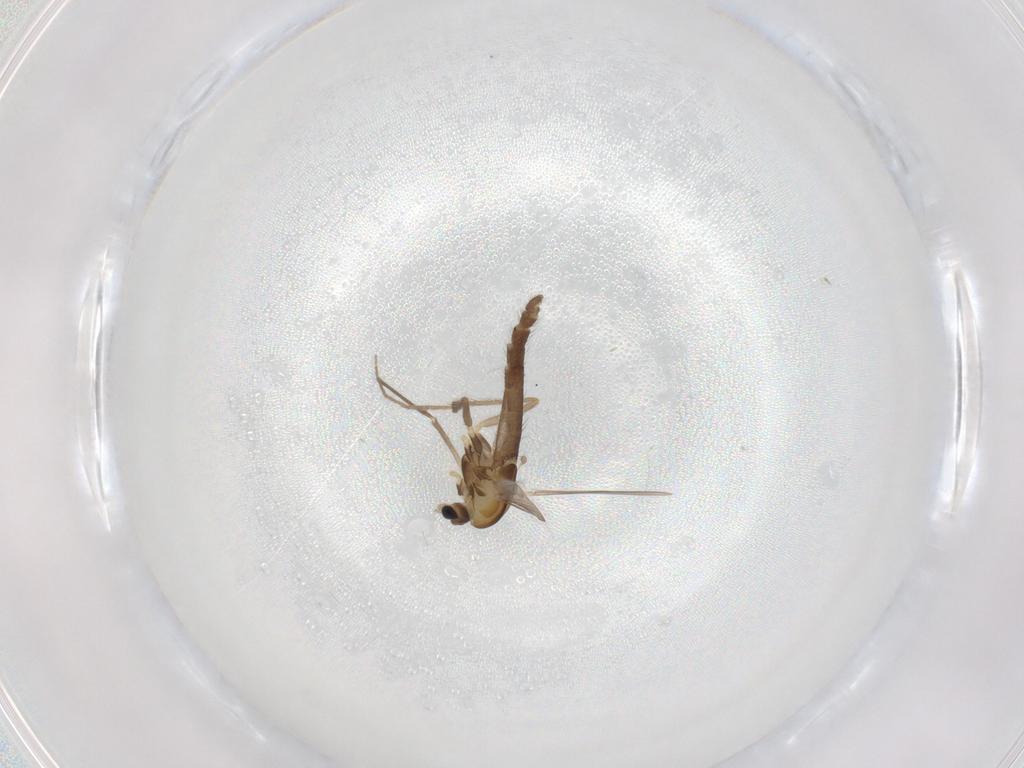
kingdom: Animalia
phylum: Arthropoda
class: Insecta
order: Diptera
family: Chironomidae
